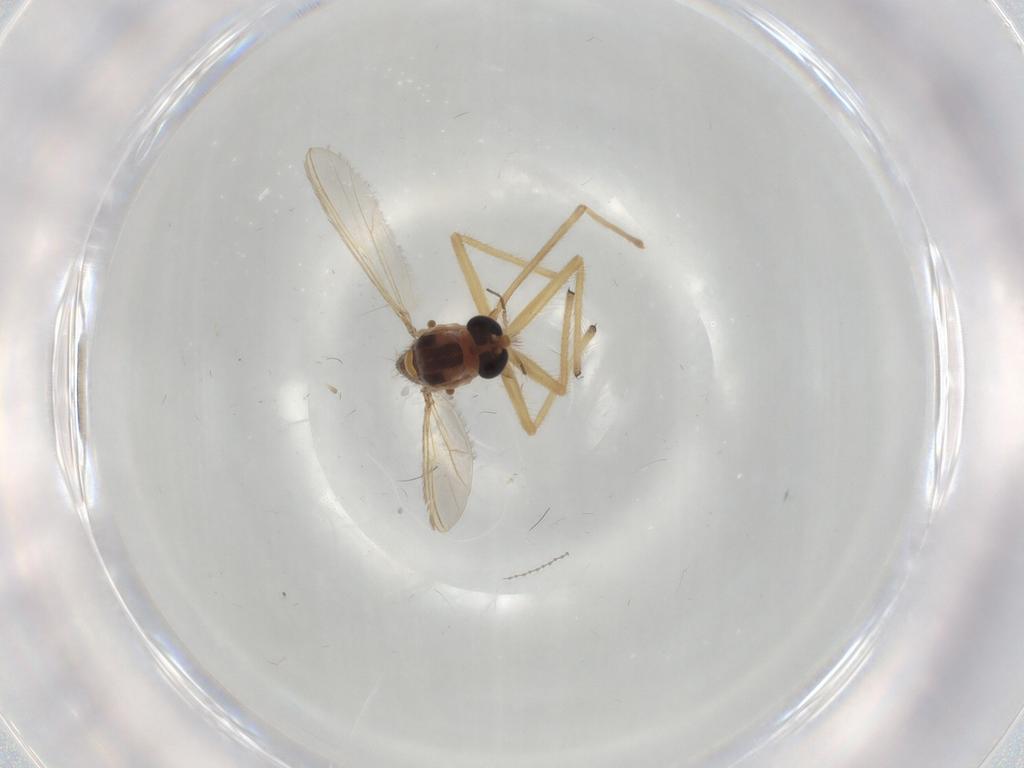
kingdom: Animalia
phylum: Arthropoda
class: Insecta
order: Diptera
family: Chironomidae
